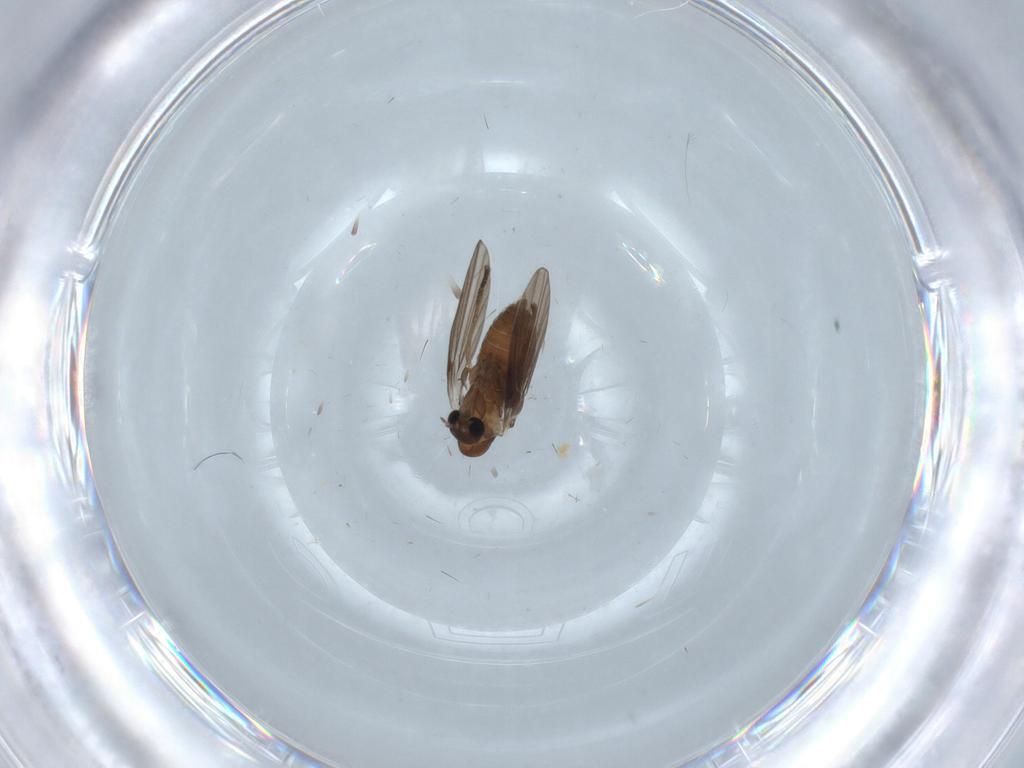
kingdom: Animalia
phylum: Arthropoda
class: Insecta
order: Diptera
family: Psychodidae
